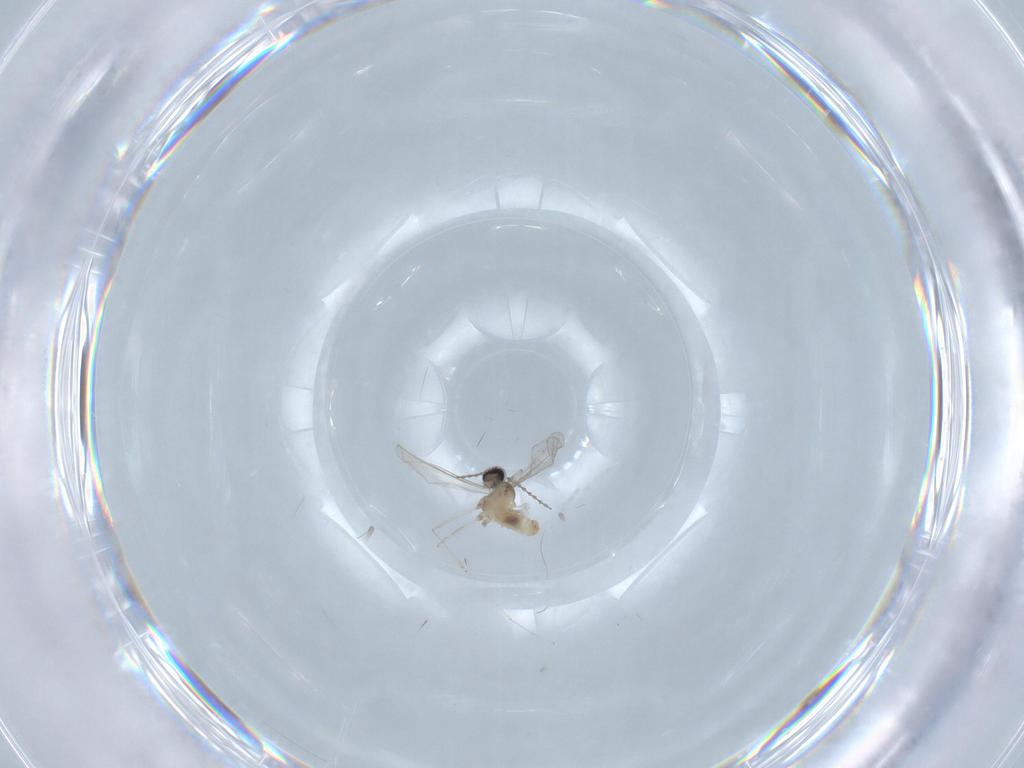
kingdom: Animalia
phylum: Arthropoda
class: Insecta
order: Diptera
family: Cecidomyiidae
